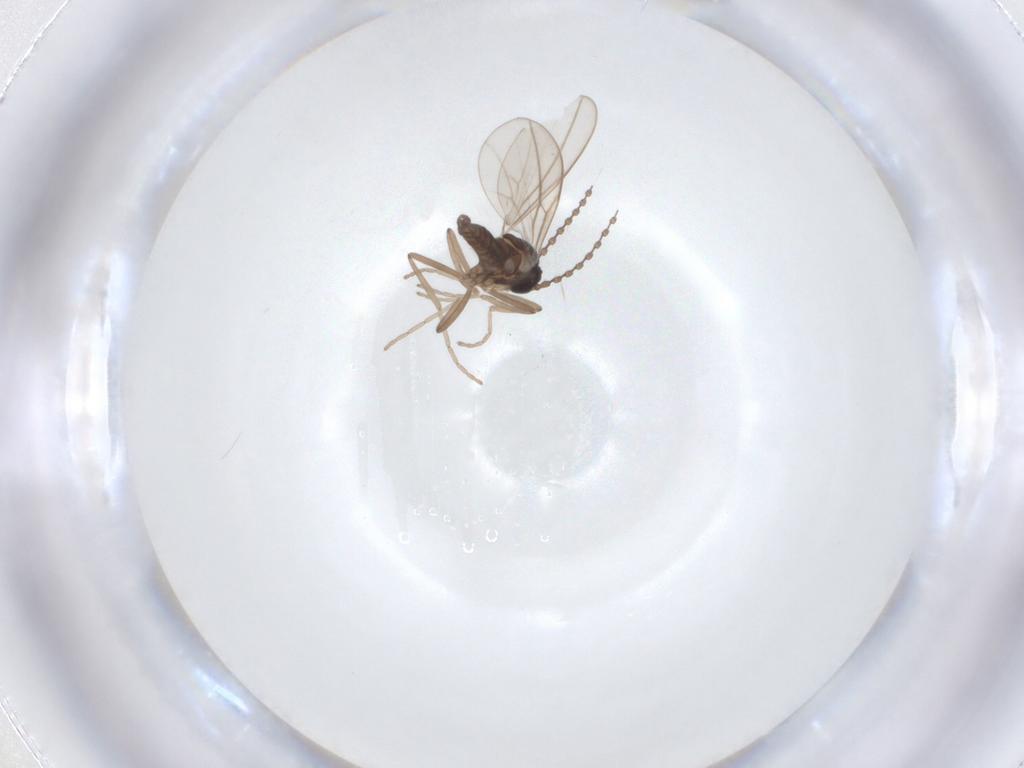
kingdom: Animalia
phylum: Arthropoda
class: Insecta
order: Diptera
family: Cecidomyiidae
